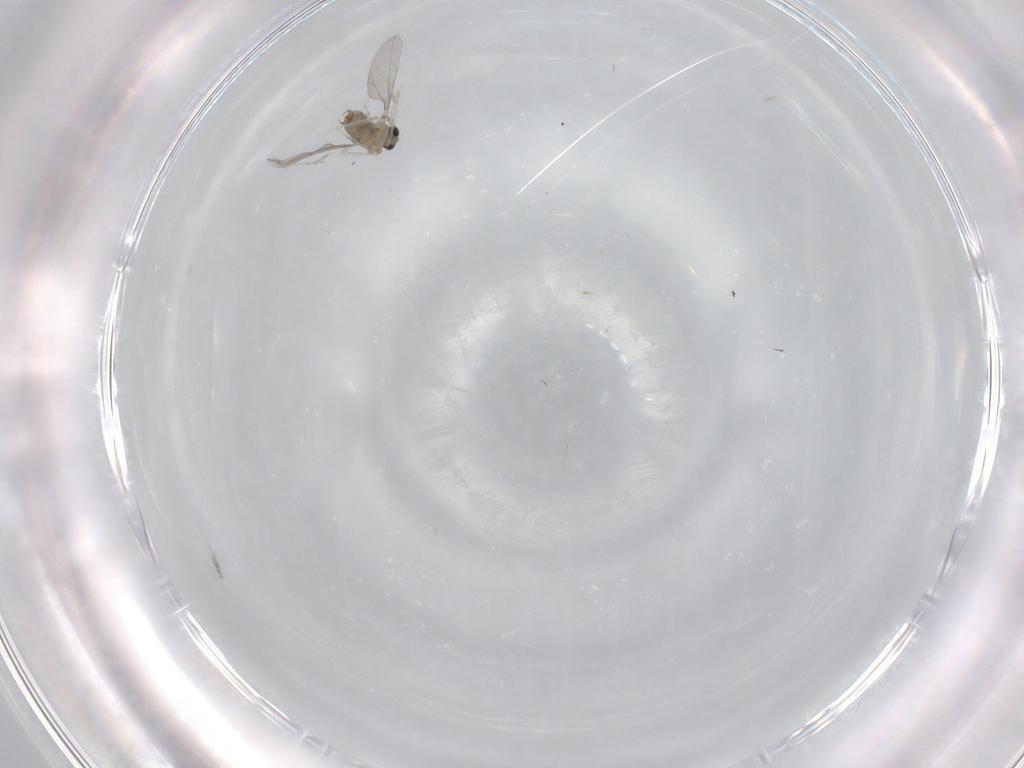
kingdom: Animalia
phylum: Arthropoda
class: Insecta
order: Diptera
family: Cecidomyiidae
